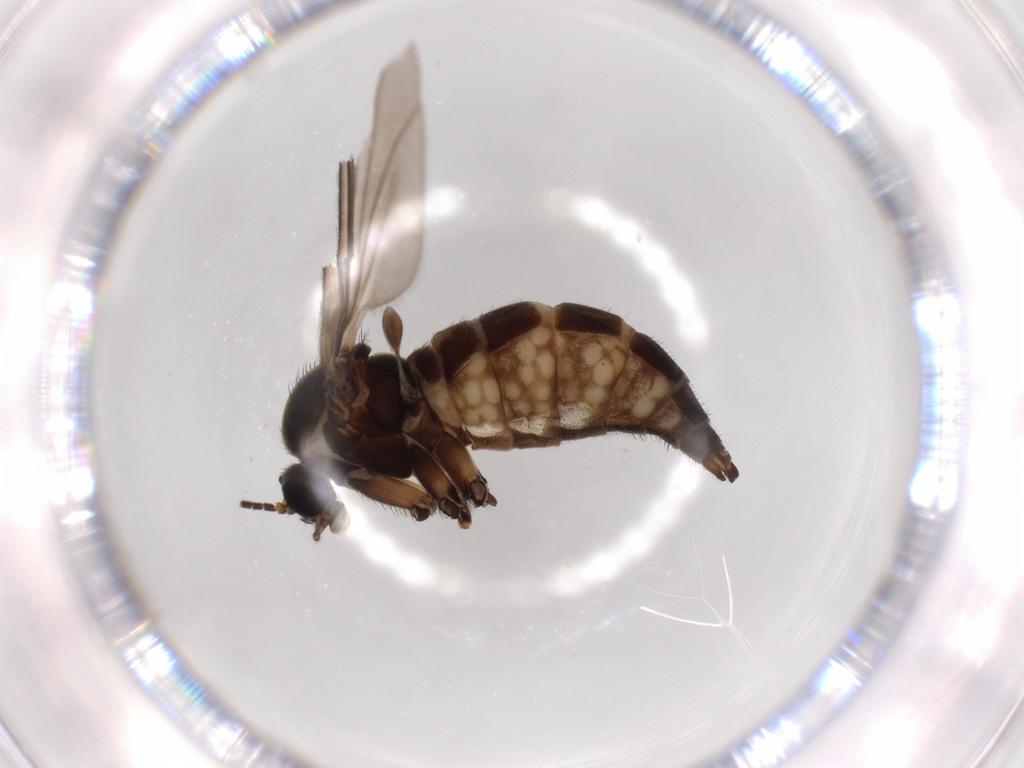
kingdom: Animalia
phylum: Arthropoda
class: Insecta
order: Diptera
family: Sciaridae
